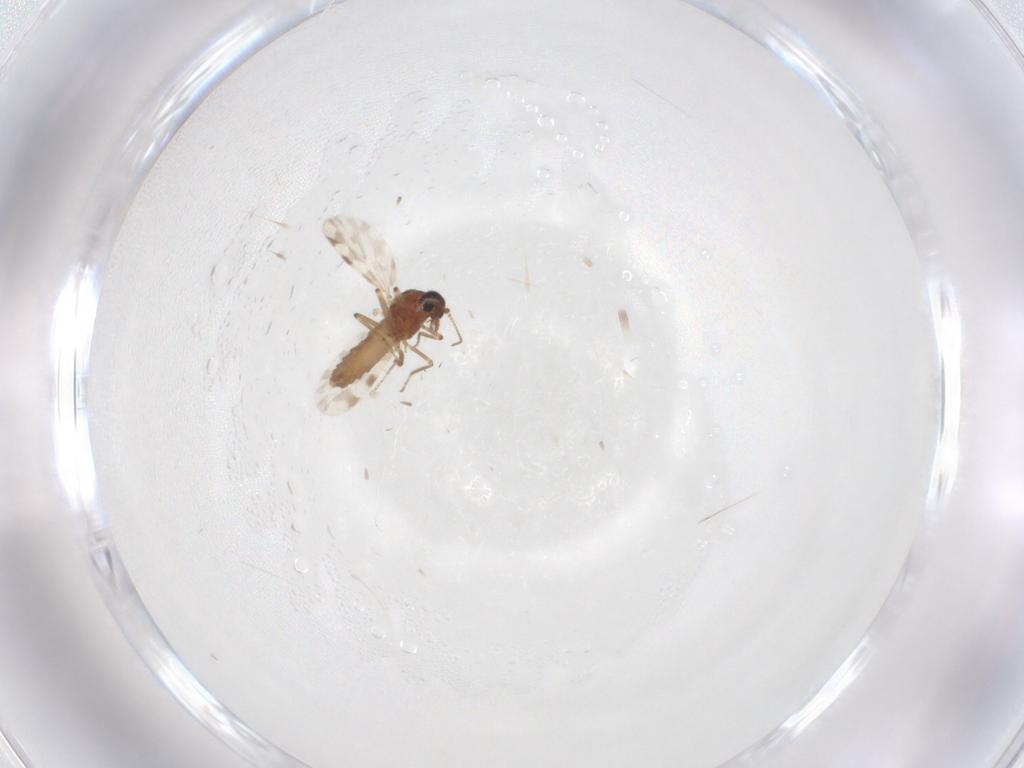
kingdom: Animalia
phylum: Arthropoda
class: Insecta
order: Diptera
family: Ceratopogonidae
